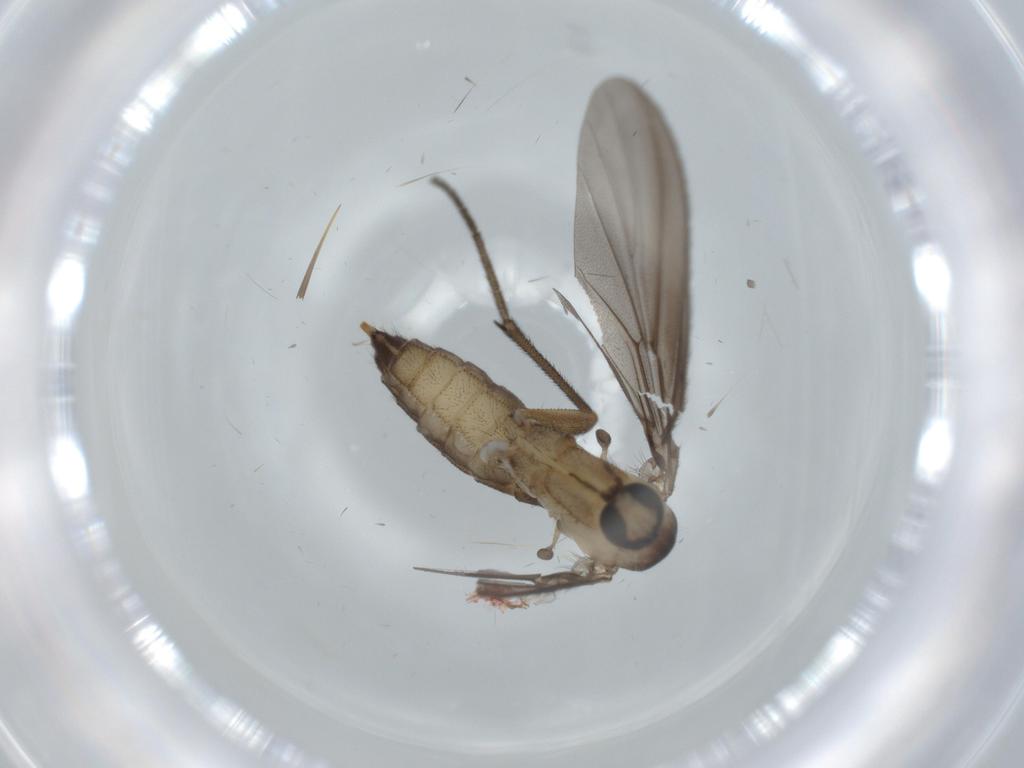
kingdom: Animalia
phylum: Arthropoda
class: Insecta
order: Diptera
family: Diadocidiidae
